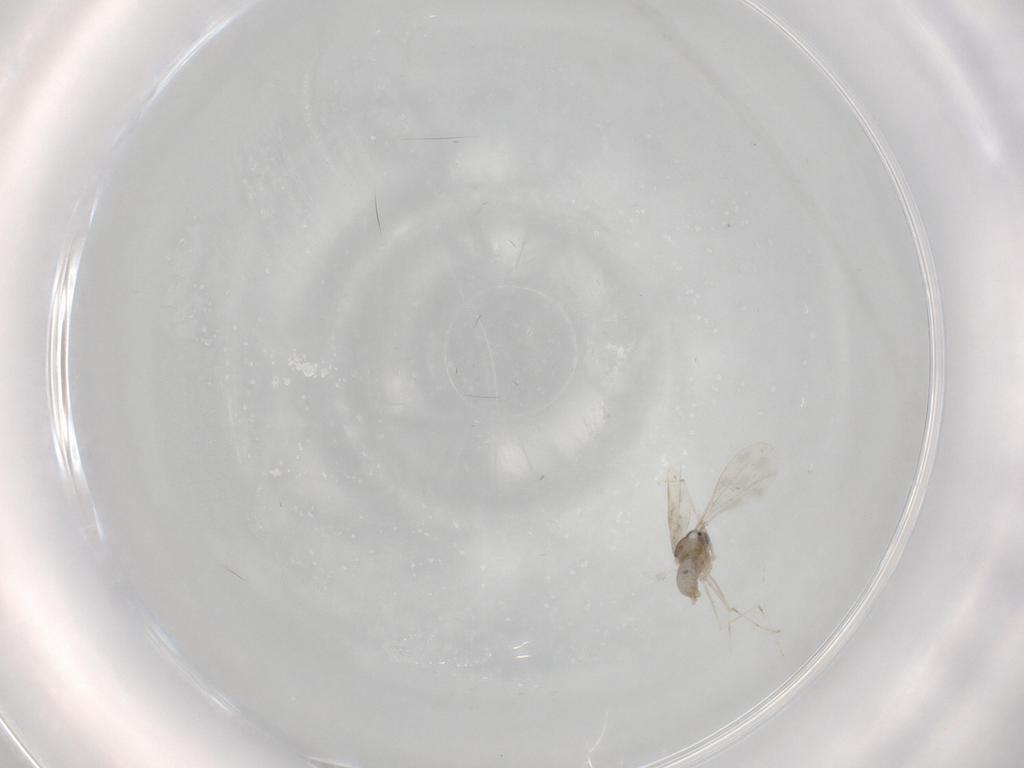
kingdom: Animalia
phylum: Arthropoda
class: Insecta
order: Diptera
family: Cecidomyiidae
